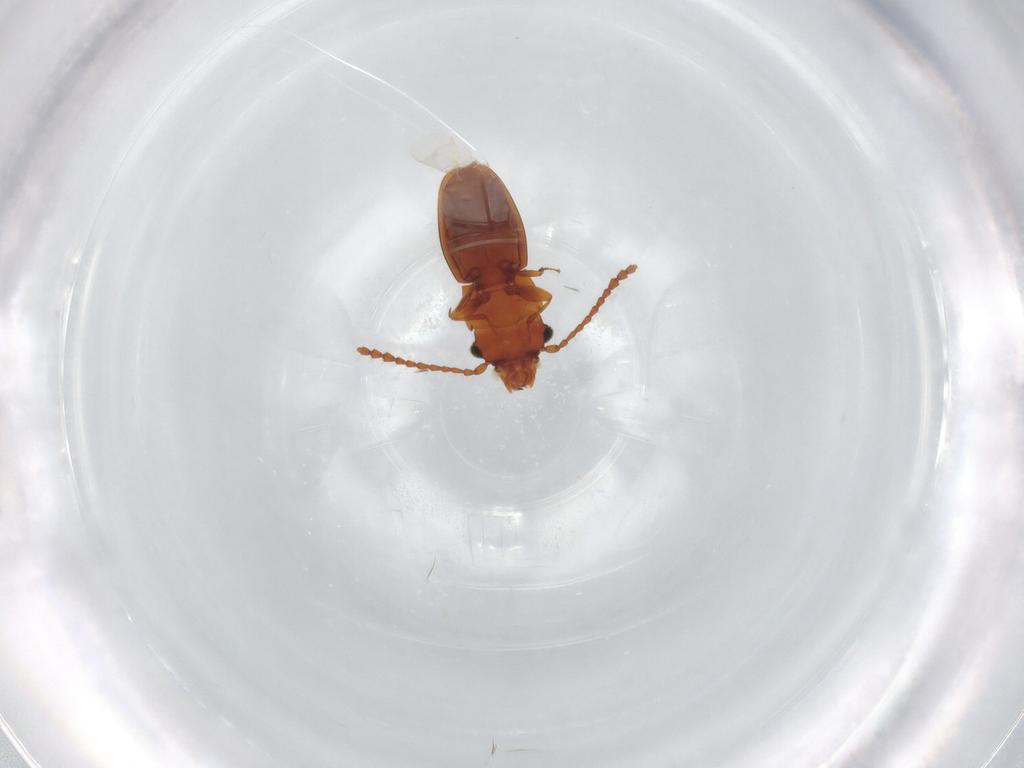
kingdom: Animalia
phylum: Arthropoda
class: Insecta
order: Coleoptera
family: Laemophloeidae
